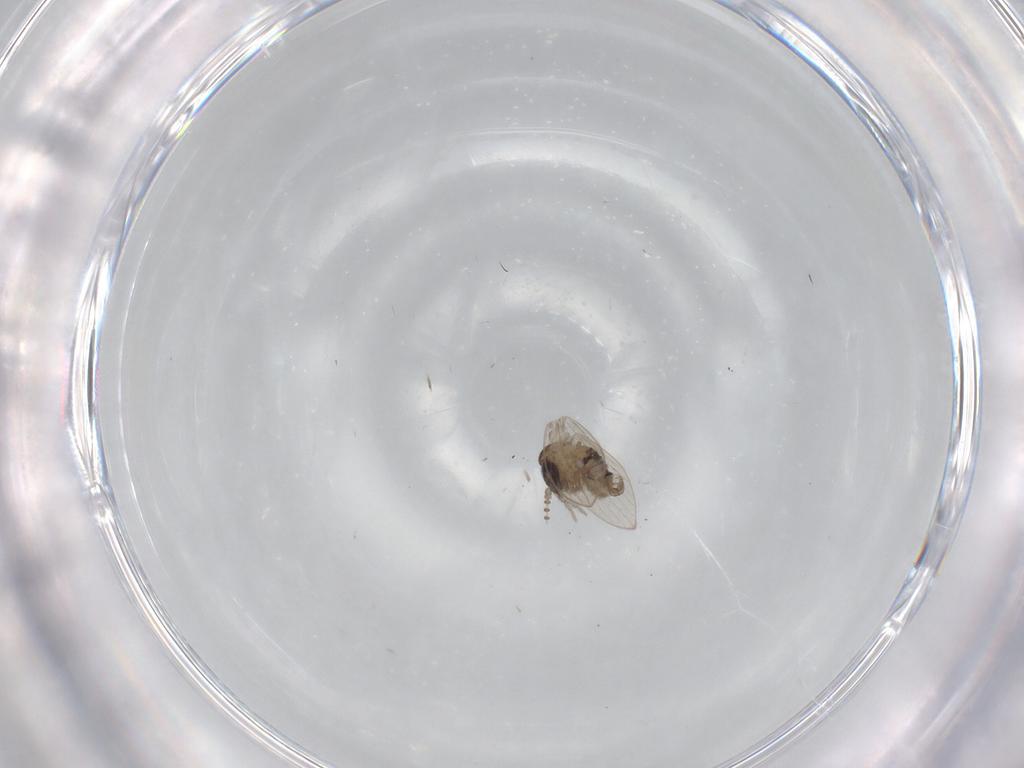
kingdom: Animalia
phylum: Arthropoda
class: Insecta
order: Diptera
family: Psychodidae
